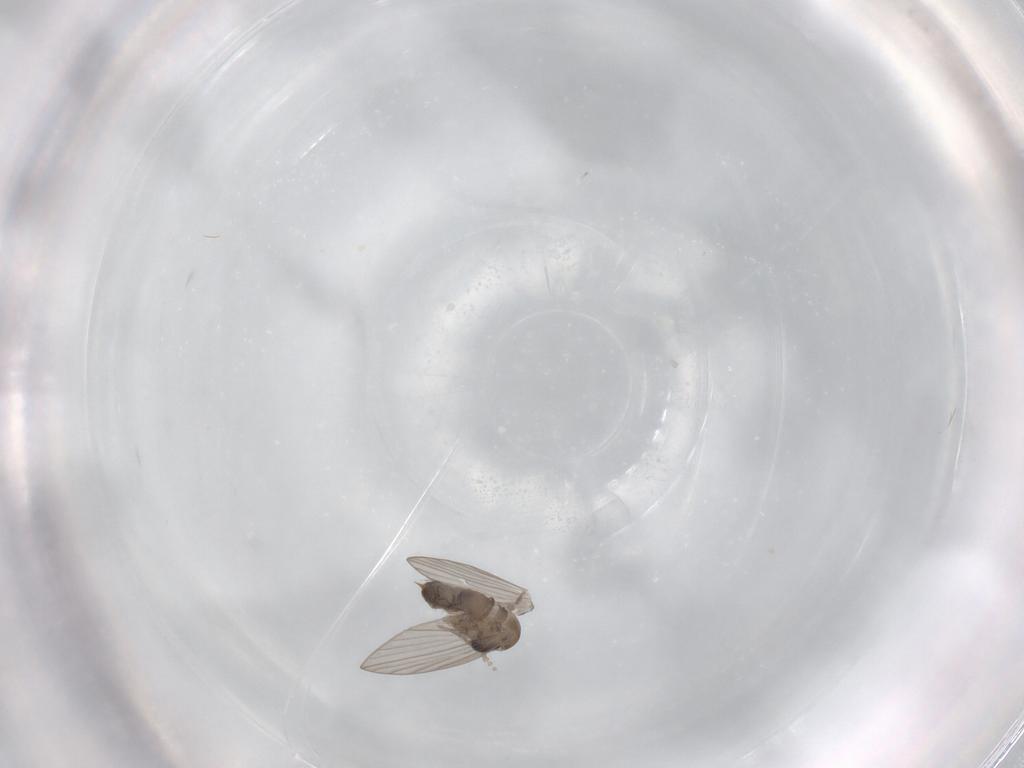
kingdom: Animalia
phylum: Arthropoda
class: Insecta
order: Diptera
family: Psychodidae
